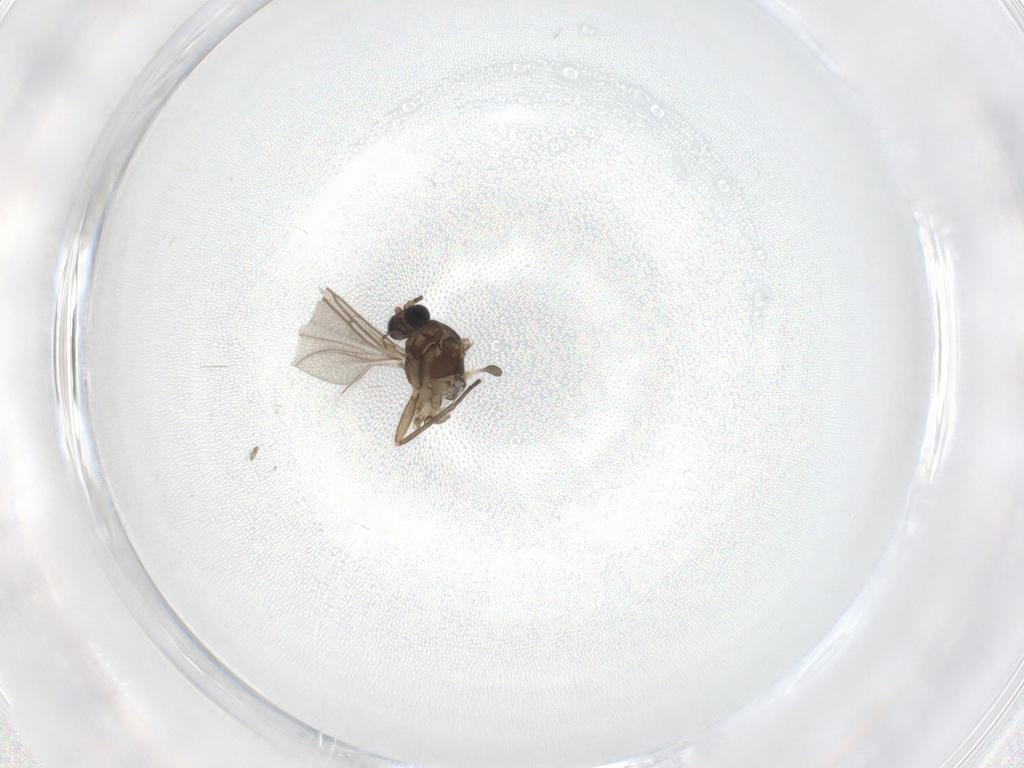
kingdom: Animalia
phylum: Arthropoda
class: Insecta
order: Diptera
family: Sciaridae
